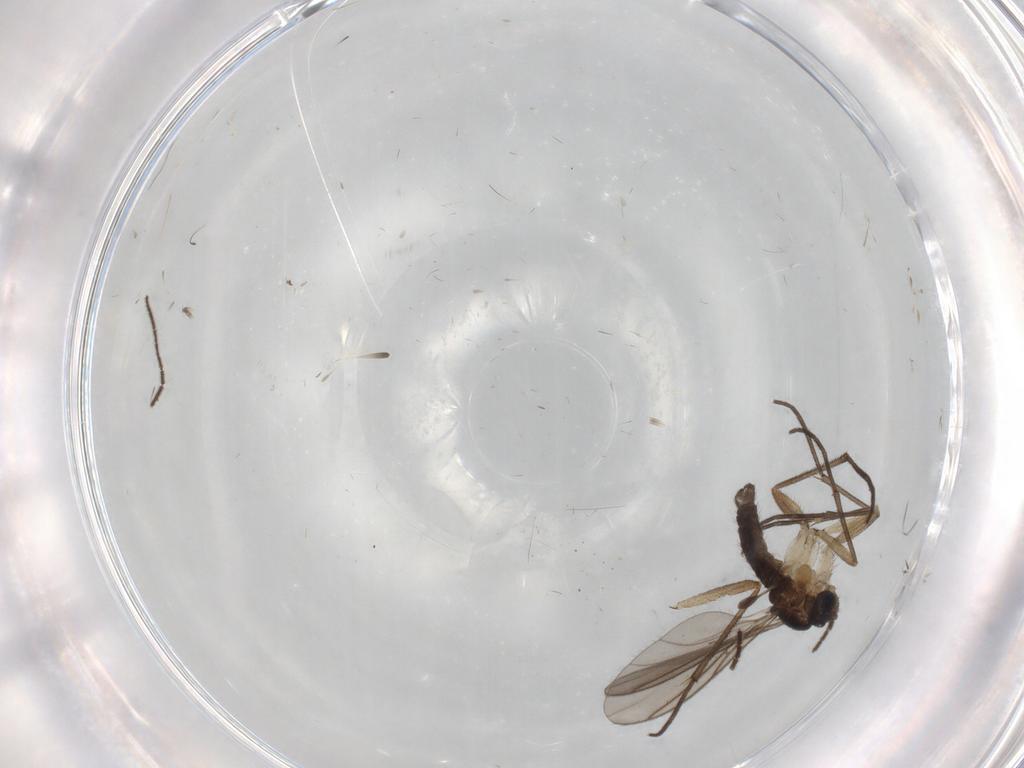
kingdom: Animalia
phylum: Arthropoda
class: Insecta
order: Diptera
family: Sciaridae
